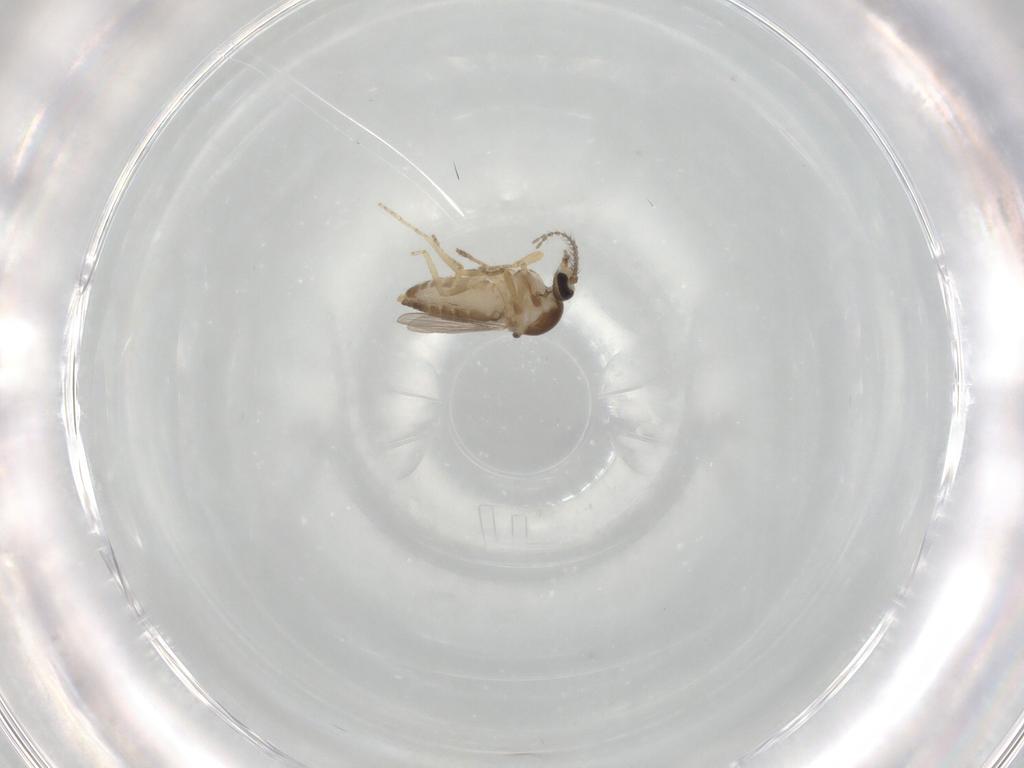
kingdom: Animalia
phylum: Arthropoda
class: Insecta
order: Diptera
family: Ceratopogonidae
